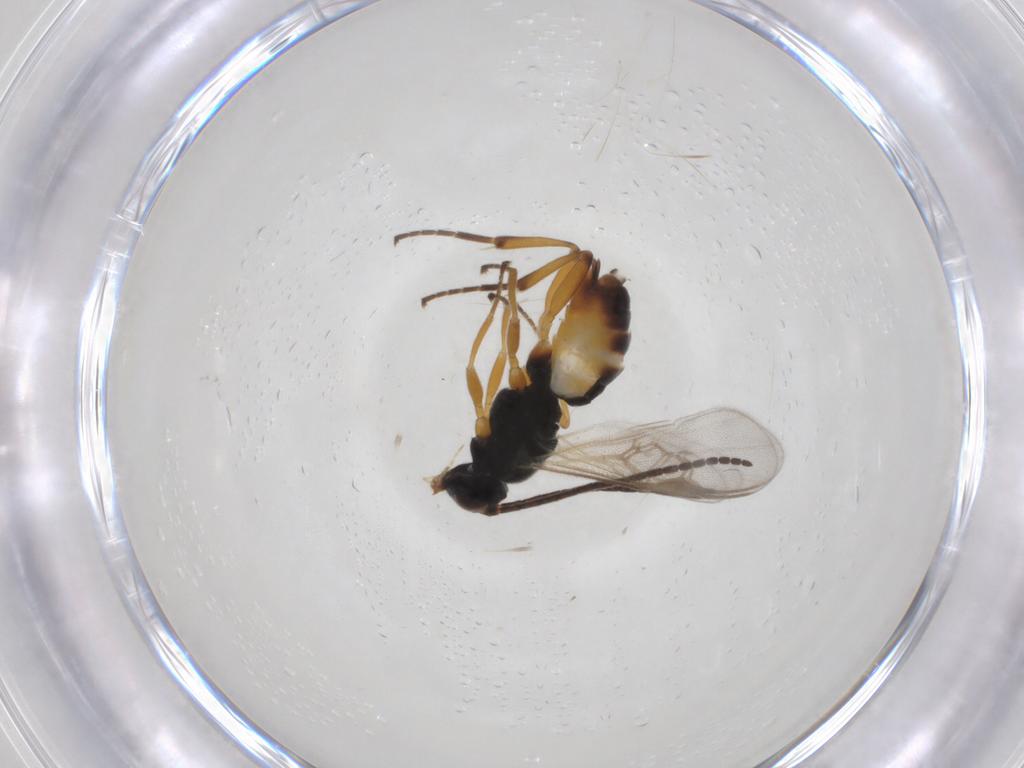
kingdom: Animalia
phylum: Arthropoda
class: Insecta
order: Hymenoptera
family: Braconidae
